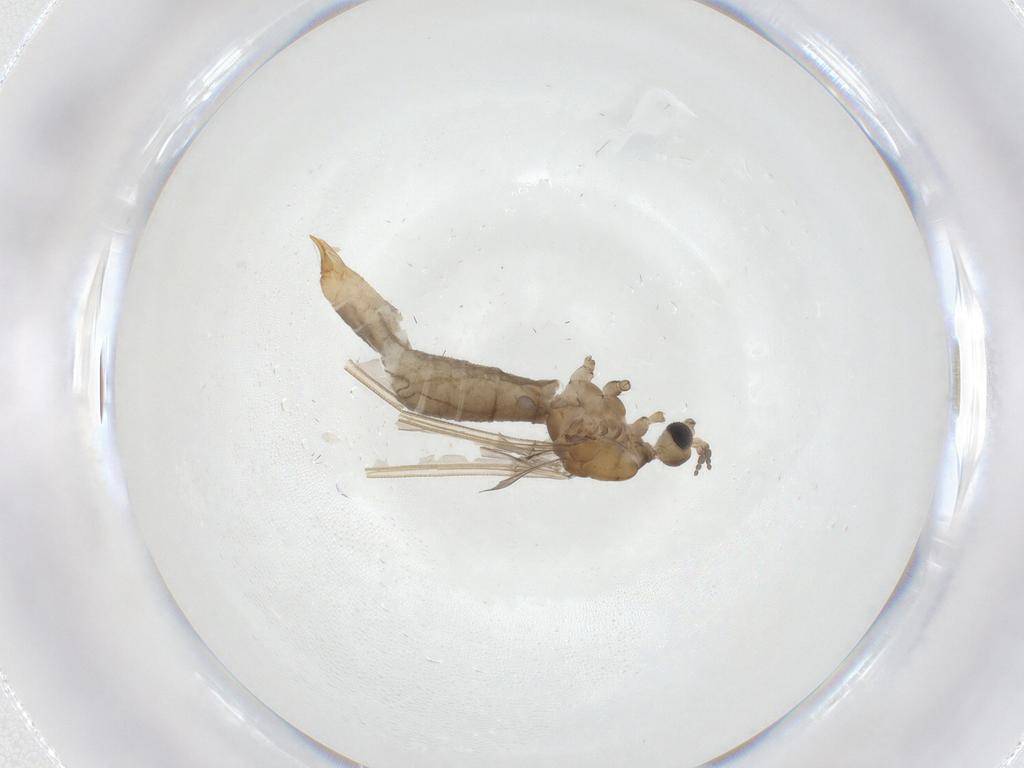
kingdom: Animalia
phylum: Arthropoda
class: Insecta
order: Diptera
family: Limoniidae
